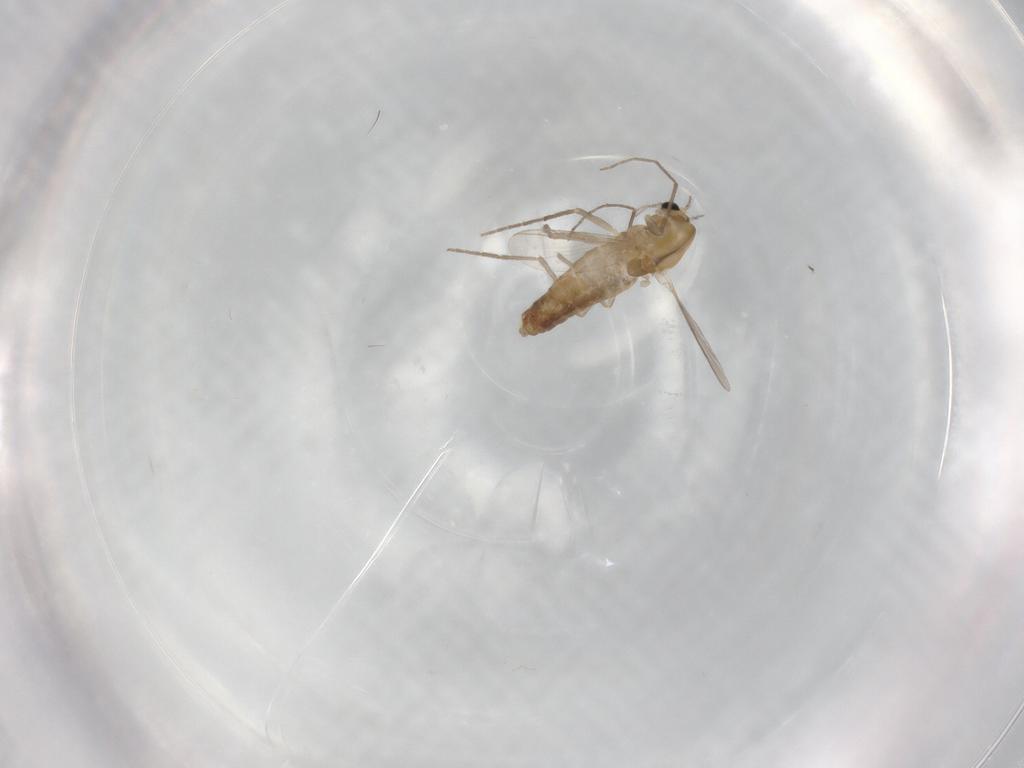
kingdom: Animalia
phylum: Arthropoda
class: Insecta
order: Diptera
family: Chironomidae
